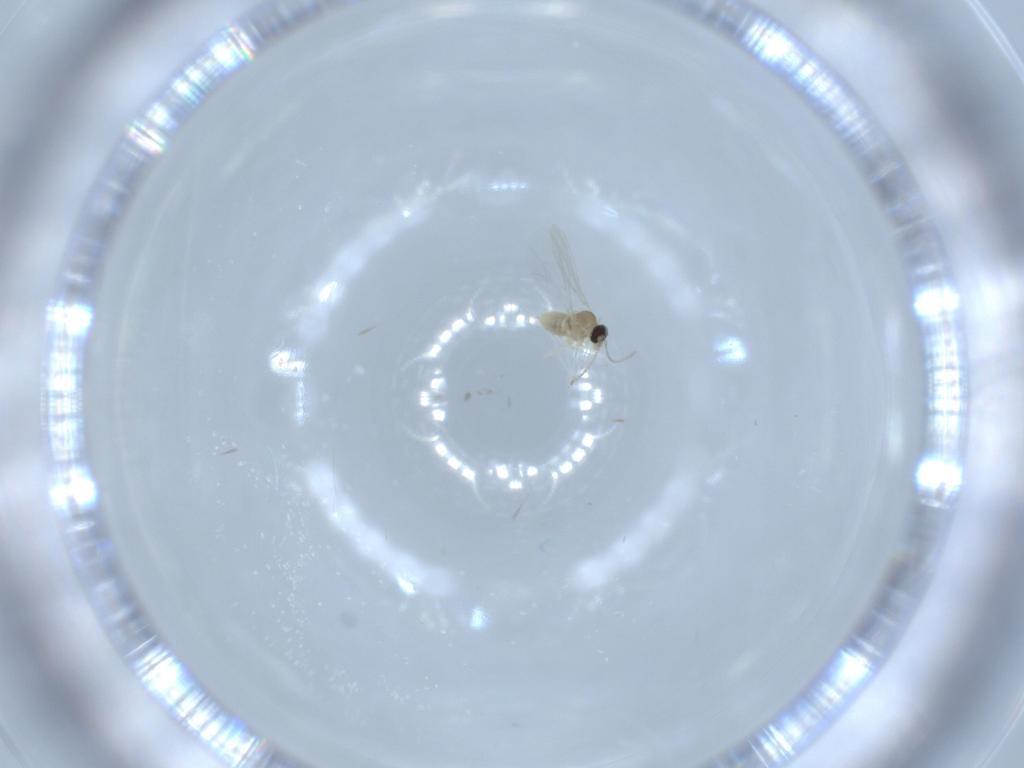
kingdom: Animalia
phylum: Arthropoda
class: Insecta
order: Diptera
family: Cecidomyiidae
